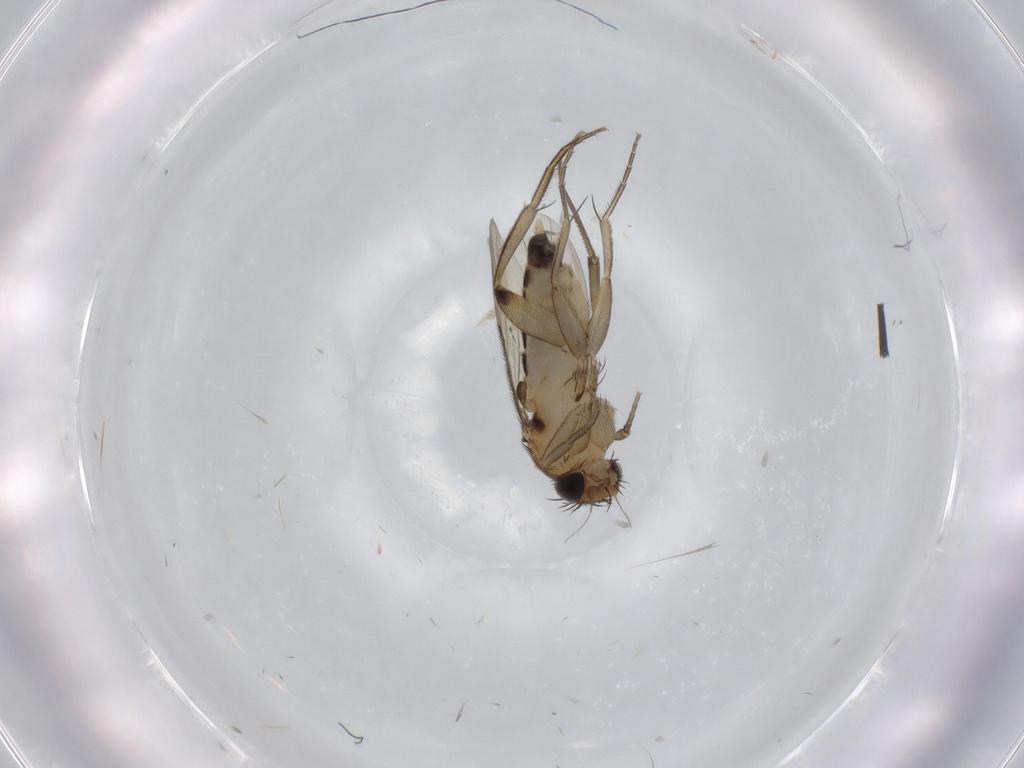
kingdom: Animalia
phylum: Arthropoda
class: Insecta
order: Diptera
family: Phoridae
